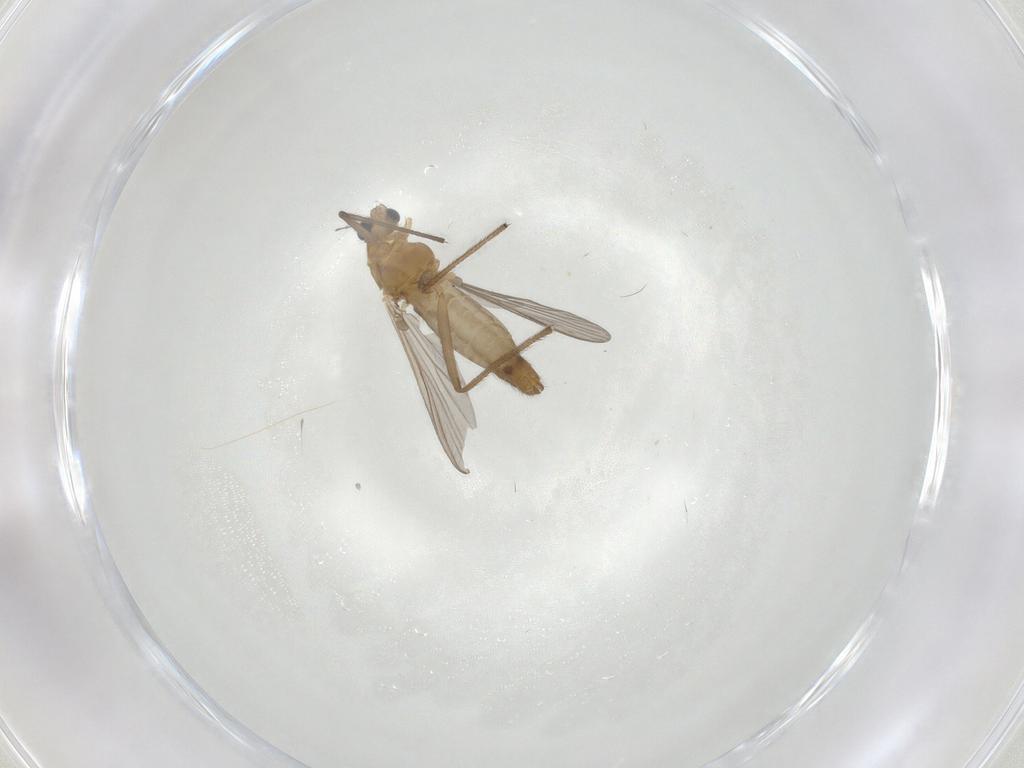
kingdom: Animalia
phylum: Arthropoda
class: Insecta
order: Diptera
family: Chironomidae
